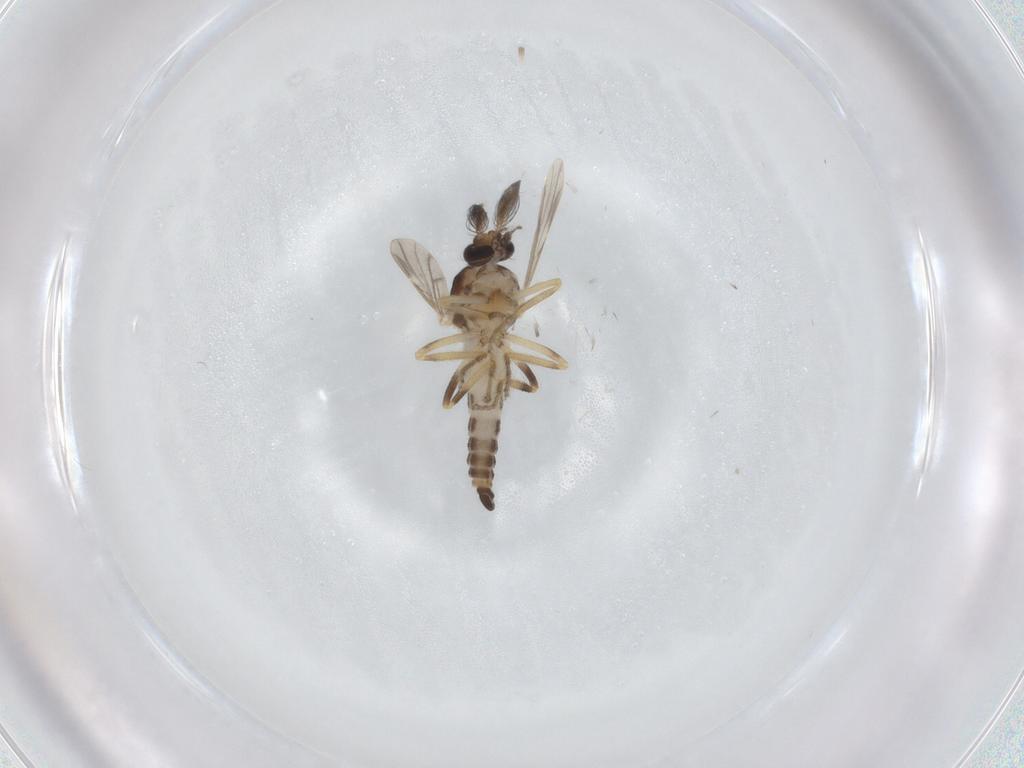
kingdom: Animalia
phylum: Arthropoda
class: Insecta
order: Diptera
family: Ceratopogonidae
